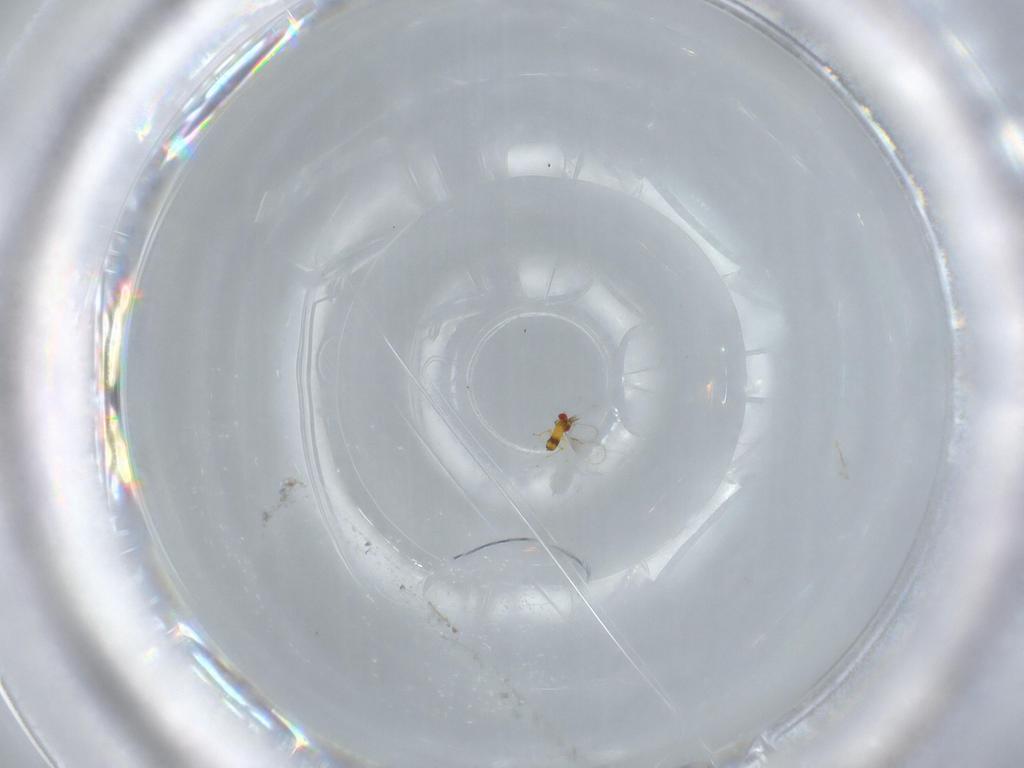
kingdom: Animalia
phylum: Arthropoda
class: Insecta
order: Hymenoptera
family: Trichogrammatidae
